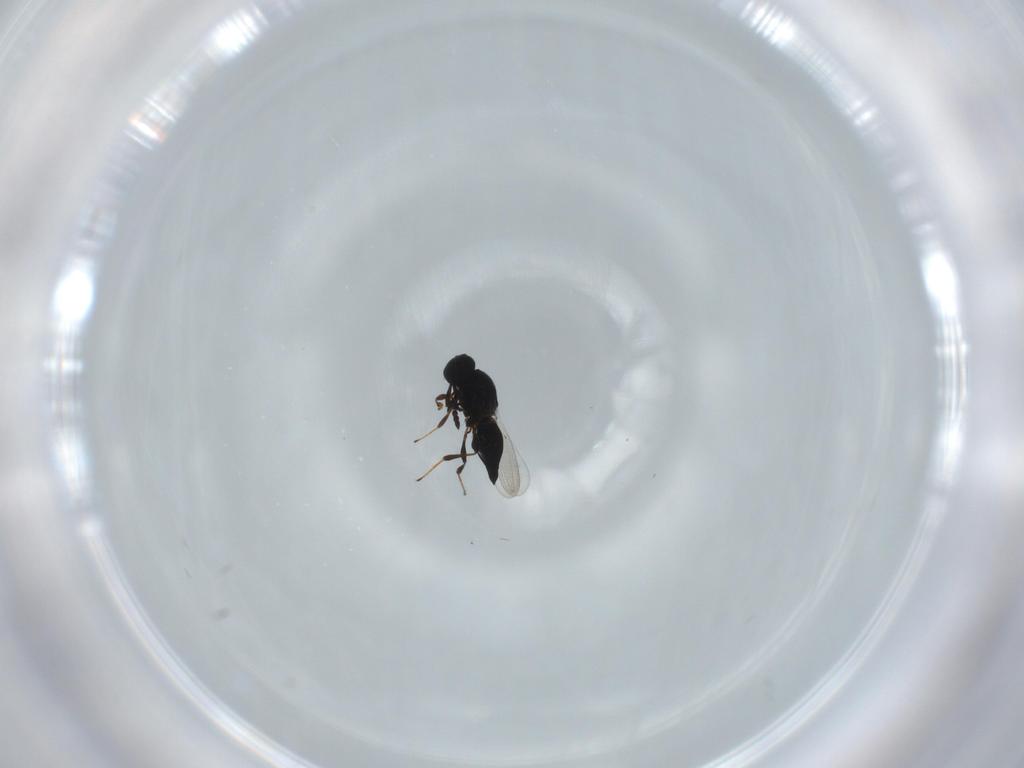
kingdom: Animalia
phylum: Arthropoda
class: Insecta
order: Hymenoptera
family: Platygastridae
